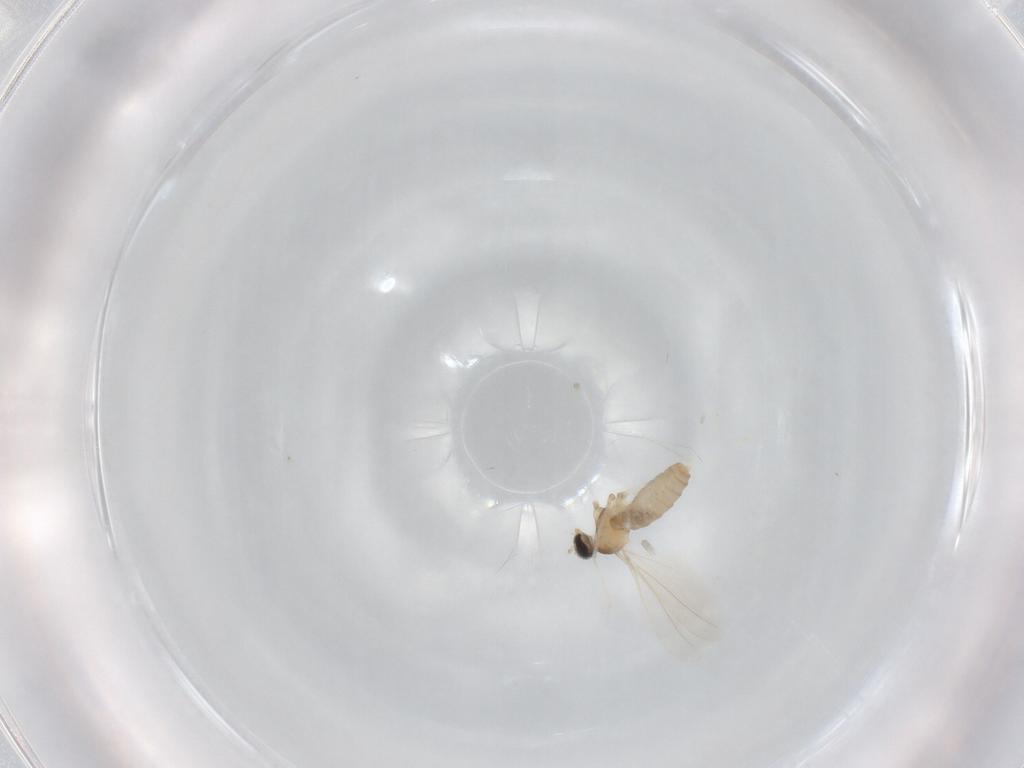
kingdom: Animalia
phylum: Arthropoda
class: Insecta
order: Diptera
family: Cecidomyiidae
